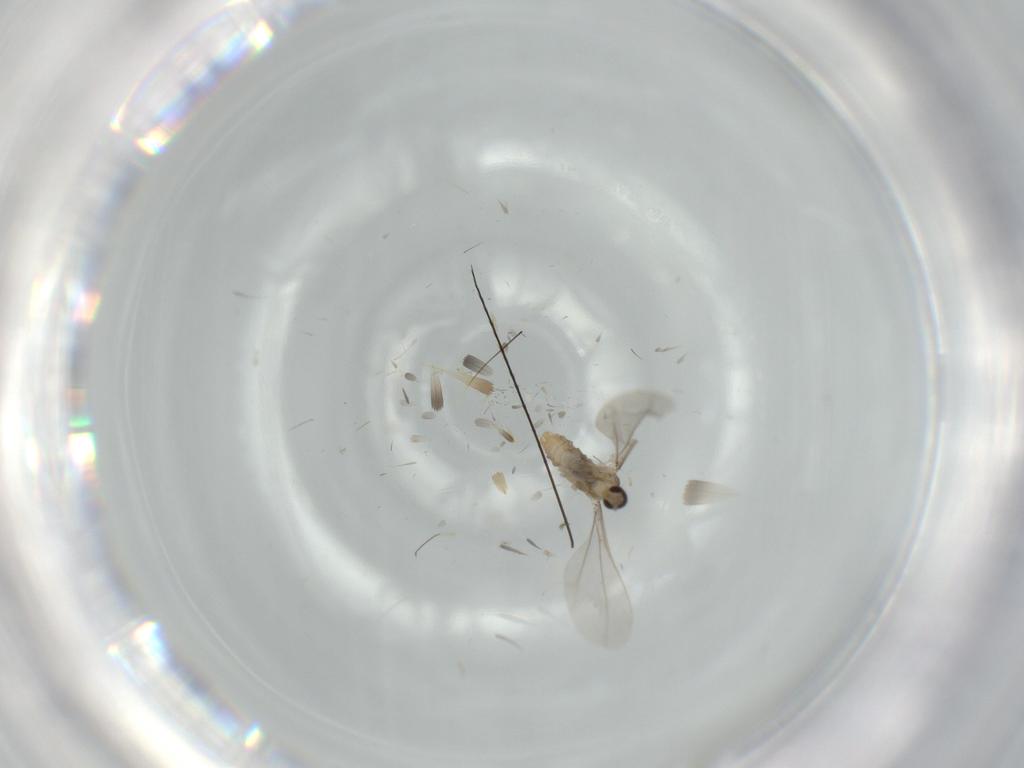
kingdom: Animalia
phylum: Arthropoda
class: Insecta
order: Diptera
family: Cecidomyiidae
